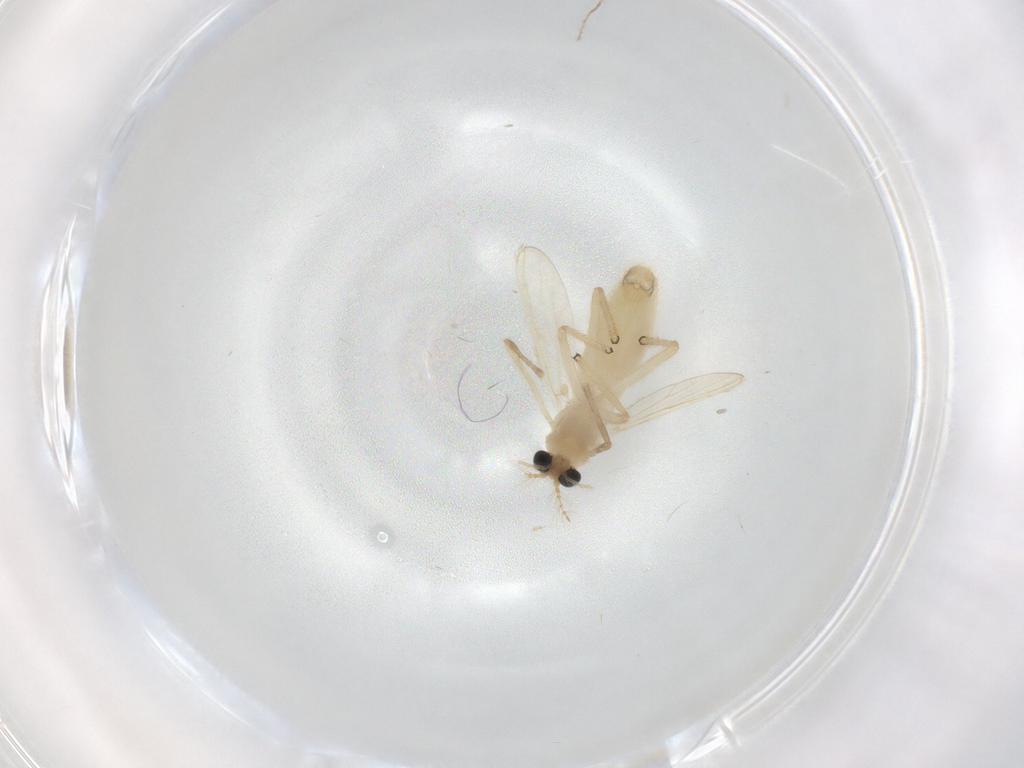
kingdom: Animalia
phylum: Arthropoda
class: Insecta
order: Diptera
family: Chironomidae
